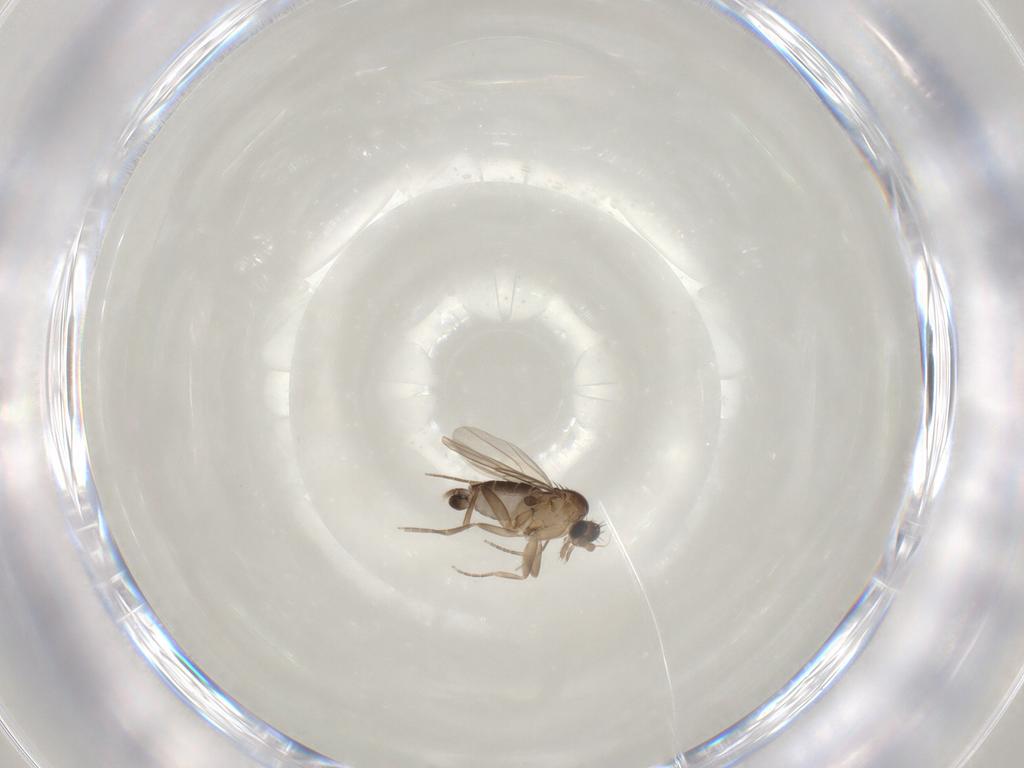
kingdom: Animalia
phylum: Arthropoda
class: Insecta
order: Diptera
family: Phoridae
